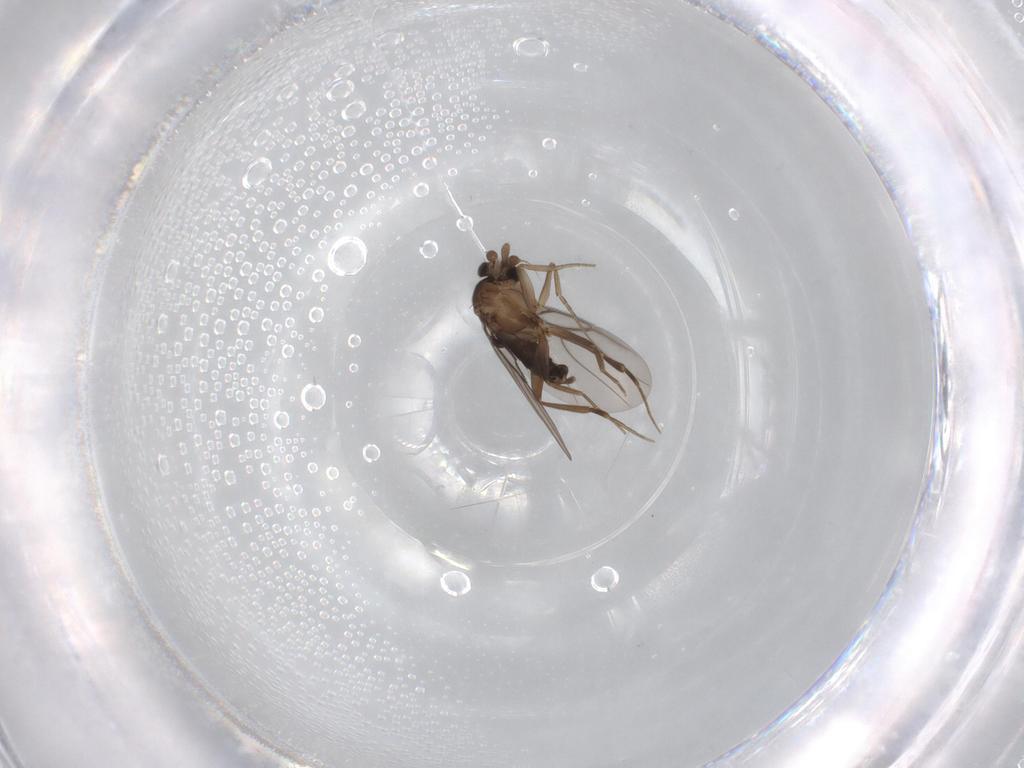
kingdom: Animalia
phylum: Arthropoda
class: Insecta
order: Diptera
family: Phoridae
